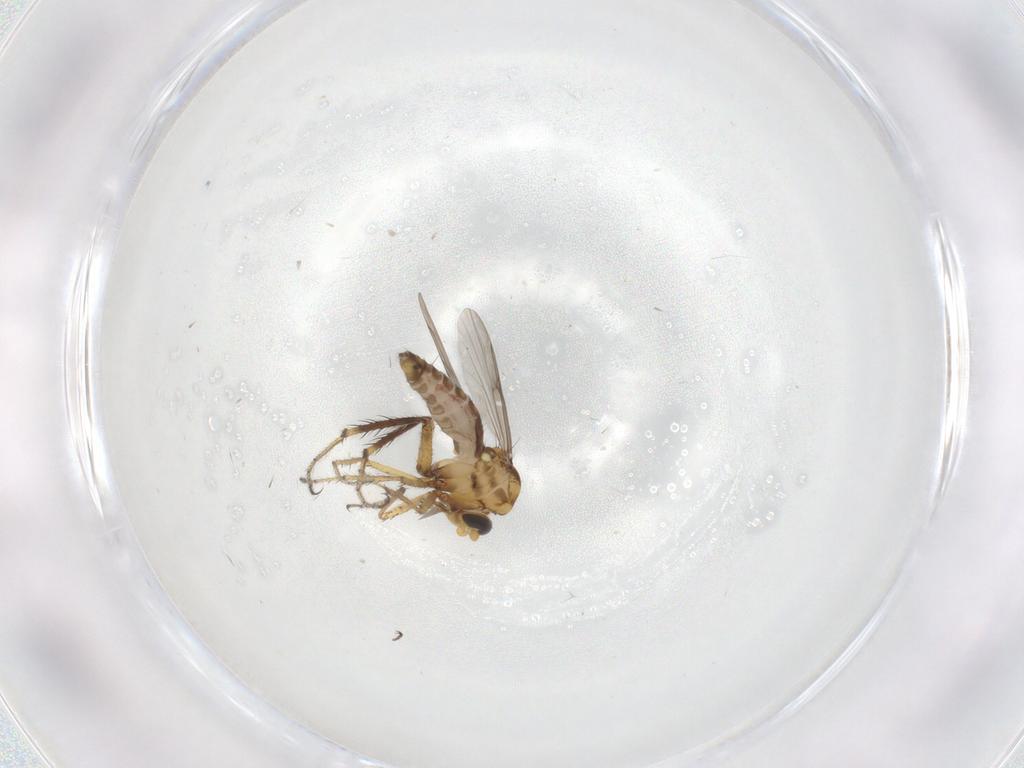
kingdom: Animalia
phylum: Arthropoda
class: Insecta
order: Diptera
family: Ceratopogonidae
